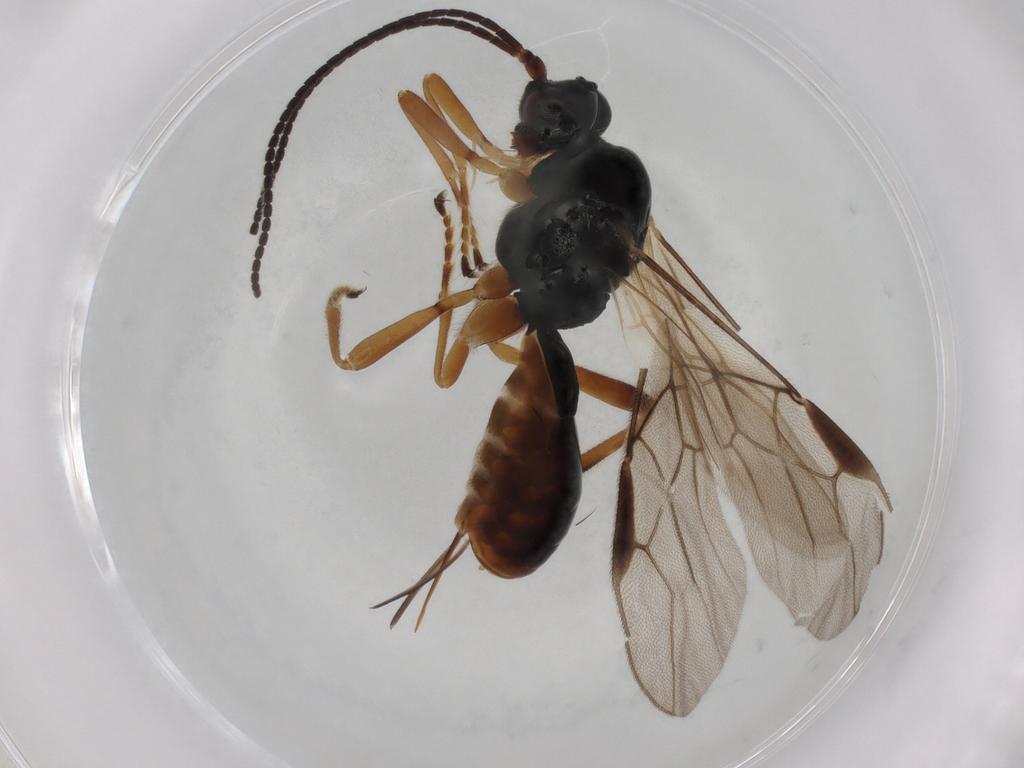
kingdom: Animalia
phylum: Arthropoda
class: Insecta
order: Hymenoptera
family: Braconidae
